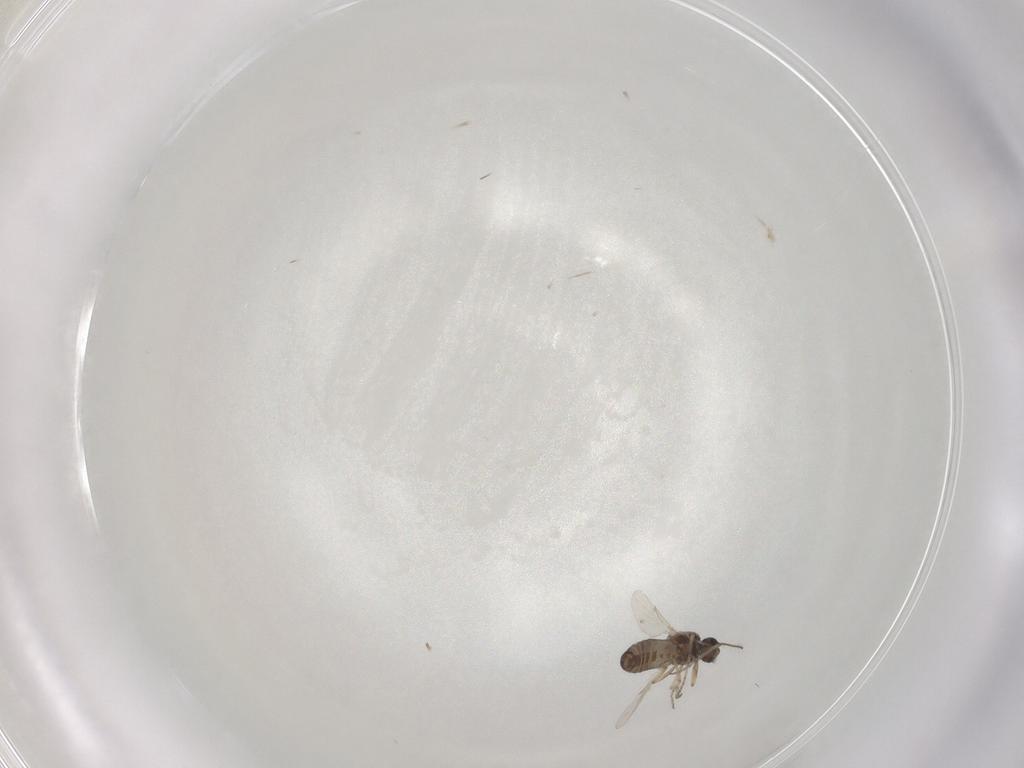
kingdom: Animalia
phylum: Arthropoda
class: Insecta
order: Diptera
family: Ceratopogonidae
